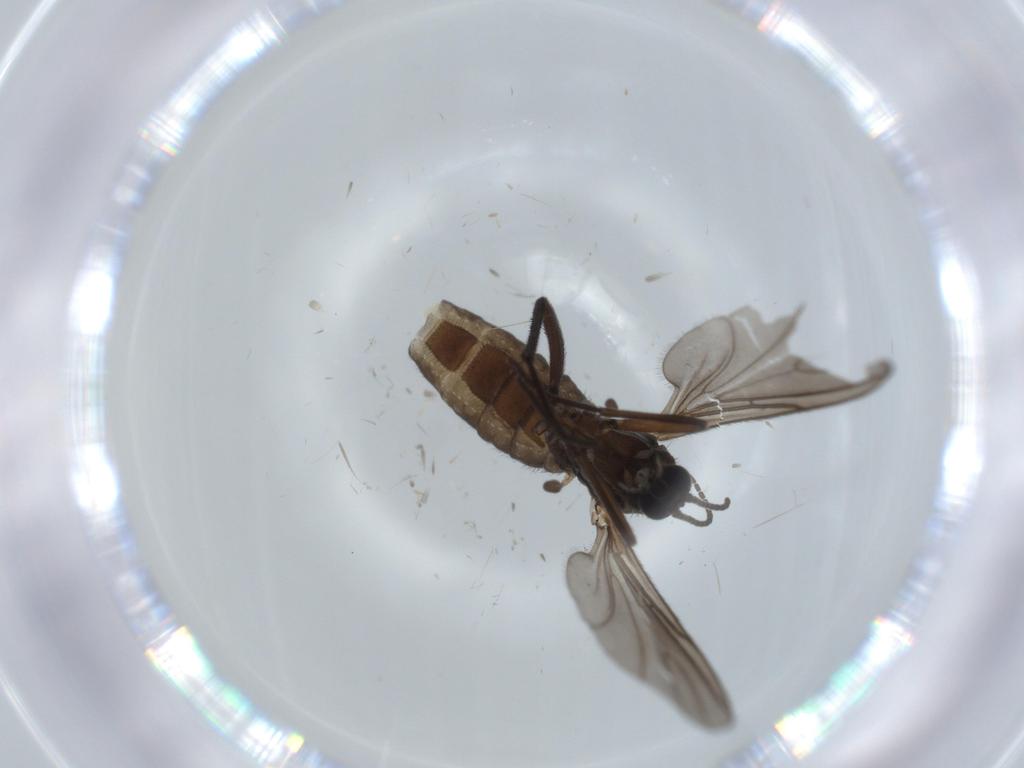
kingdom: Animalia
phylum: Arthropoda
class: Insecta
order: Diptera
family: Sciaridae
